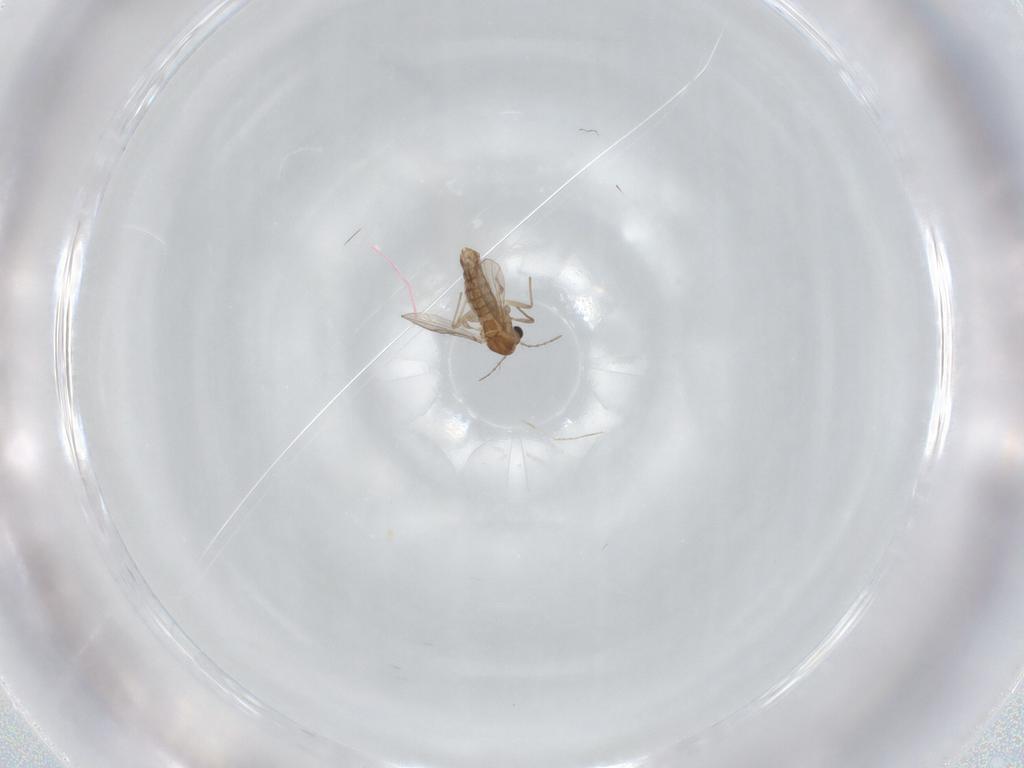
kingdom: Animalia
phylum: Arthropoda
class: Insecta
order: Diptera
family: Chironomidae
